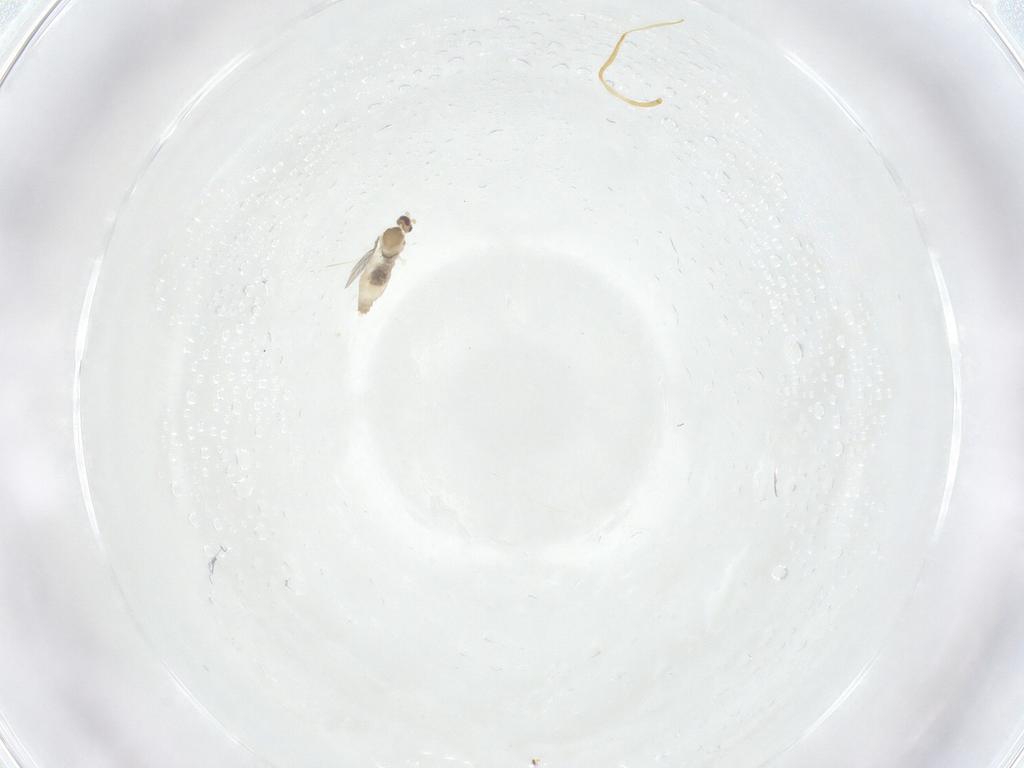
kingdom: Animalia
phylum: Arthropoda
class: Insecta
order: Diptera
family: Cecidomyiidae
